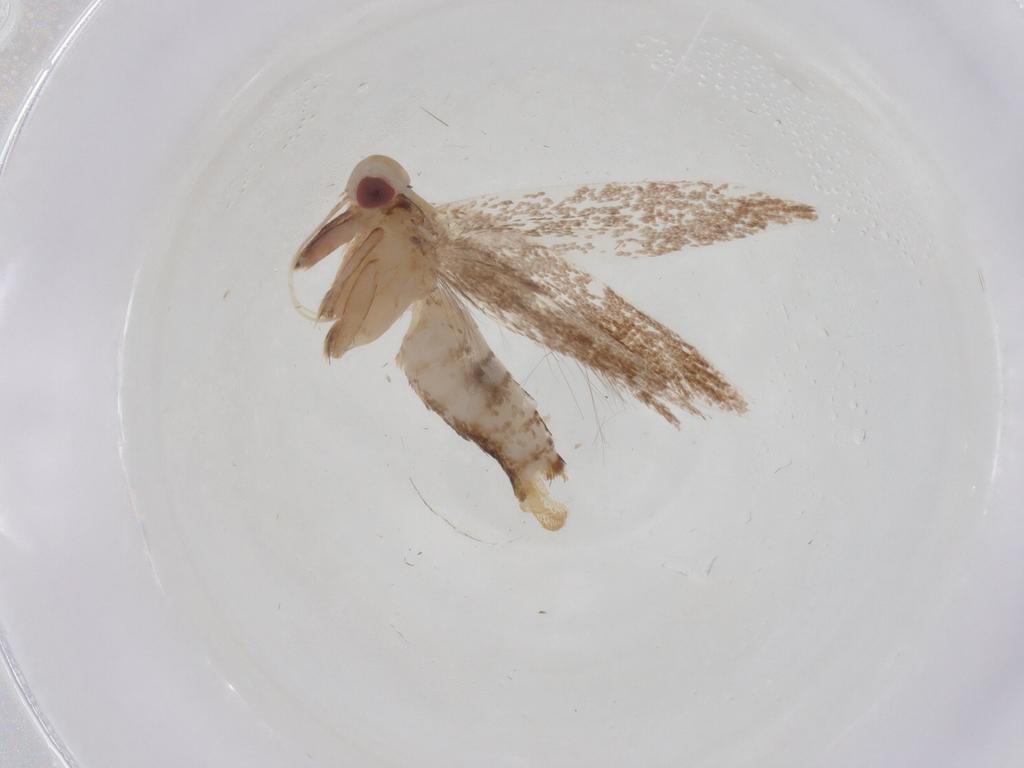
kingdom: Animalia
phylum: Arthropoda
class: Insecta
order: Lepidoptera
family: Cosmopterigidae
